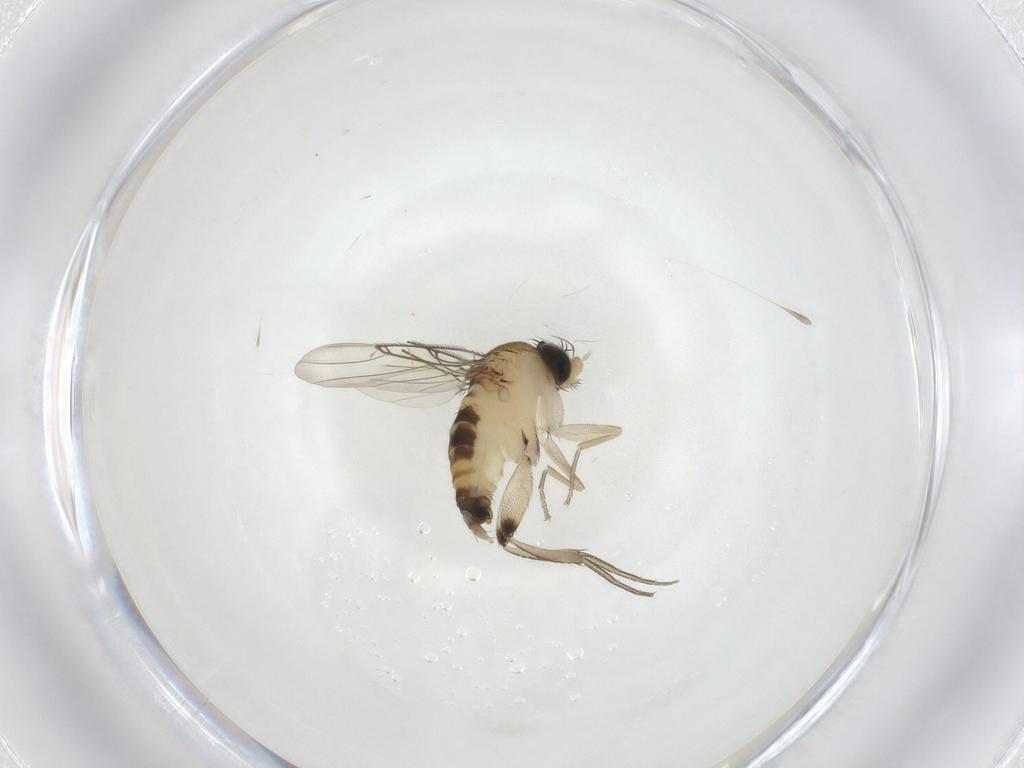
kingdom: Animalia
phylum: Arthropoda
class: Insecta
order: Diptera
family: Phoridae
